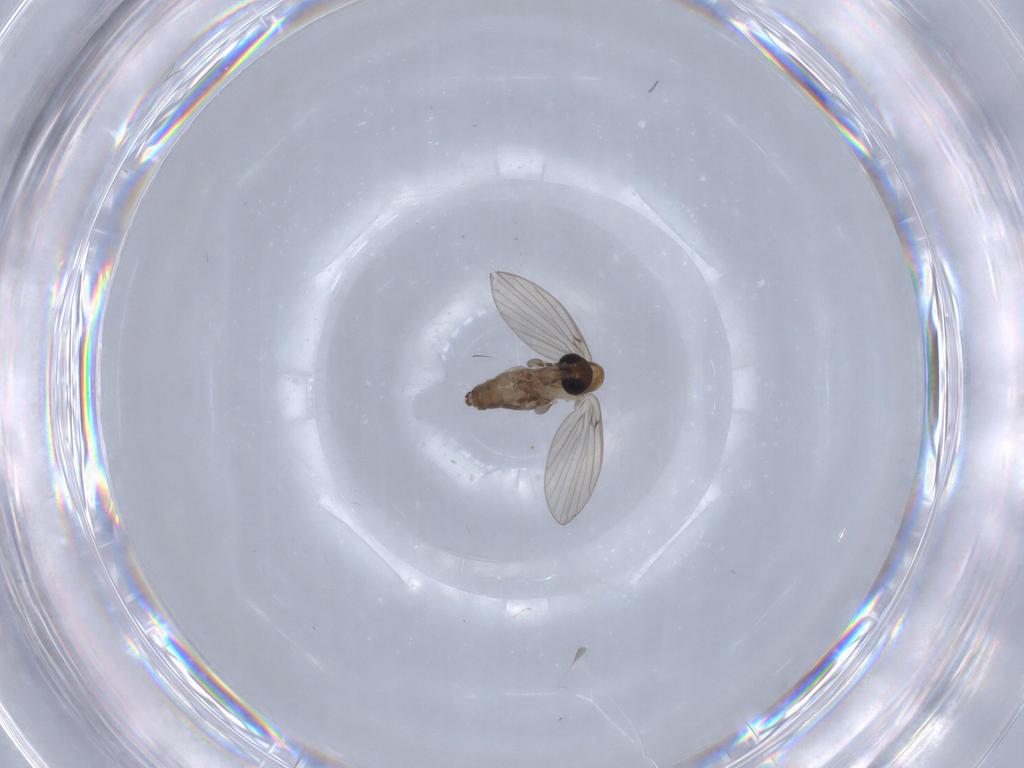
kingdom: Animalia
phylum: Arthropoda
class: Insecta
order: Diptera
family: Psychodidae
